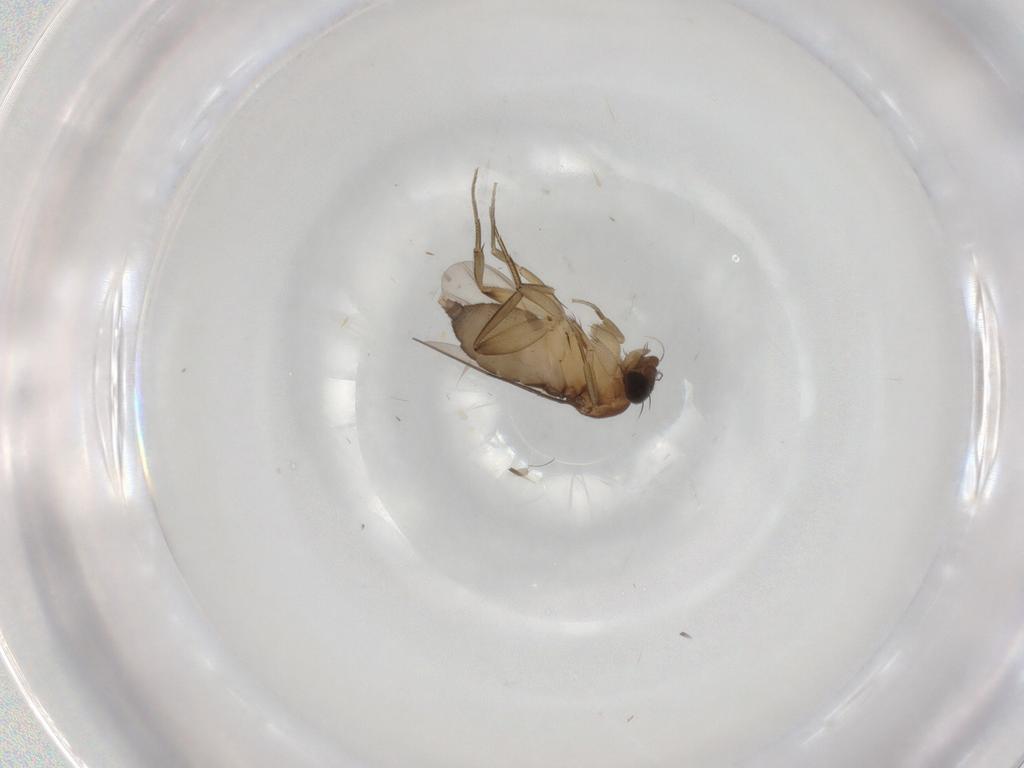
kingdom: Animalia
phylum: Arthropoda
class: Insecta
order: Diptera
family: Phoridae
